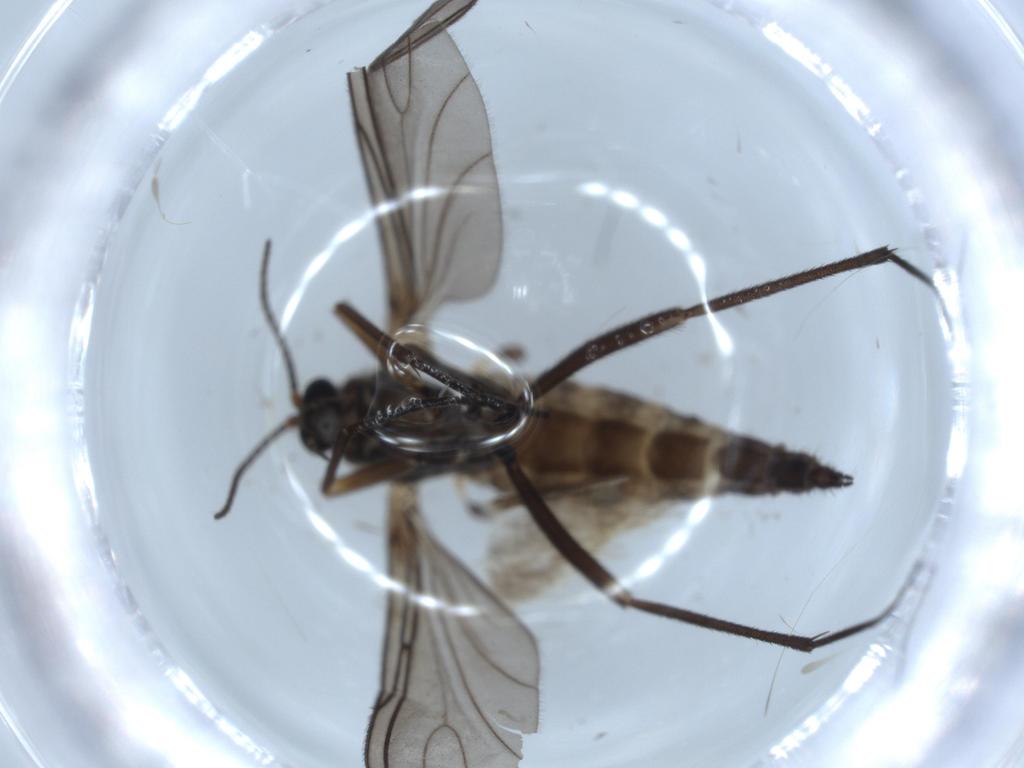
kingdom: Animalia
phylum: Arthropoda
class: Insecta
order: Diptera
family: Sciaridae
